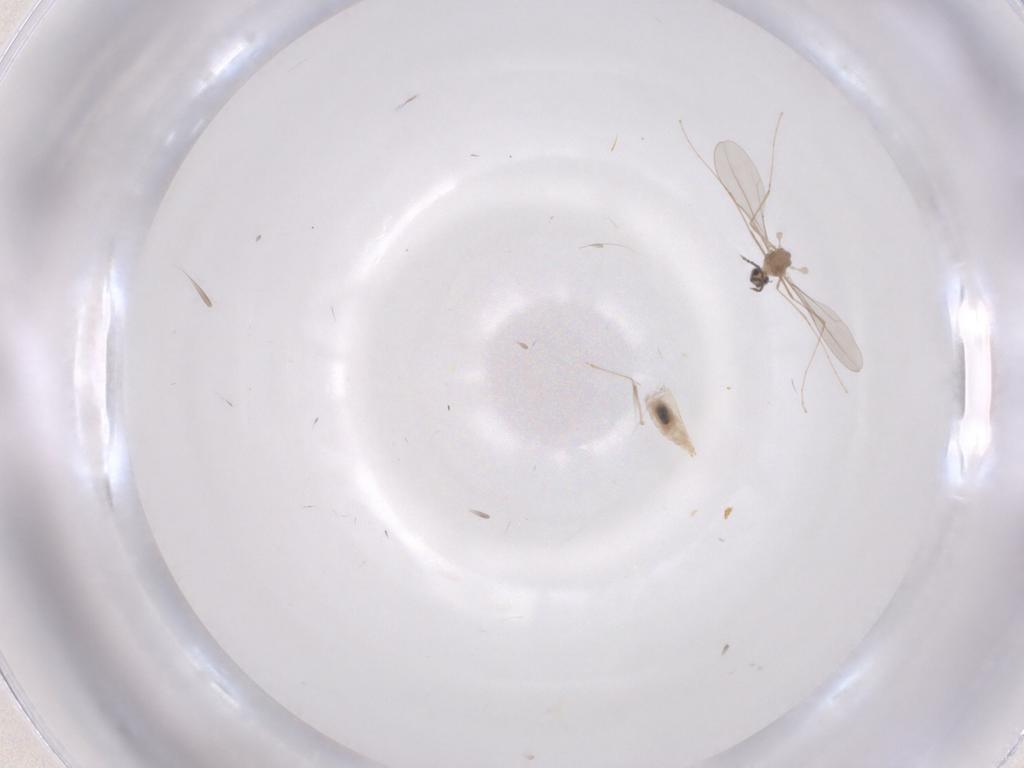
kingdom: Animalia
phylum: Arthropoda
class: Insecta
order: Diptera
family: Cecidomyiidae
